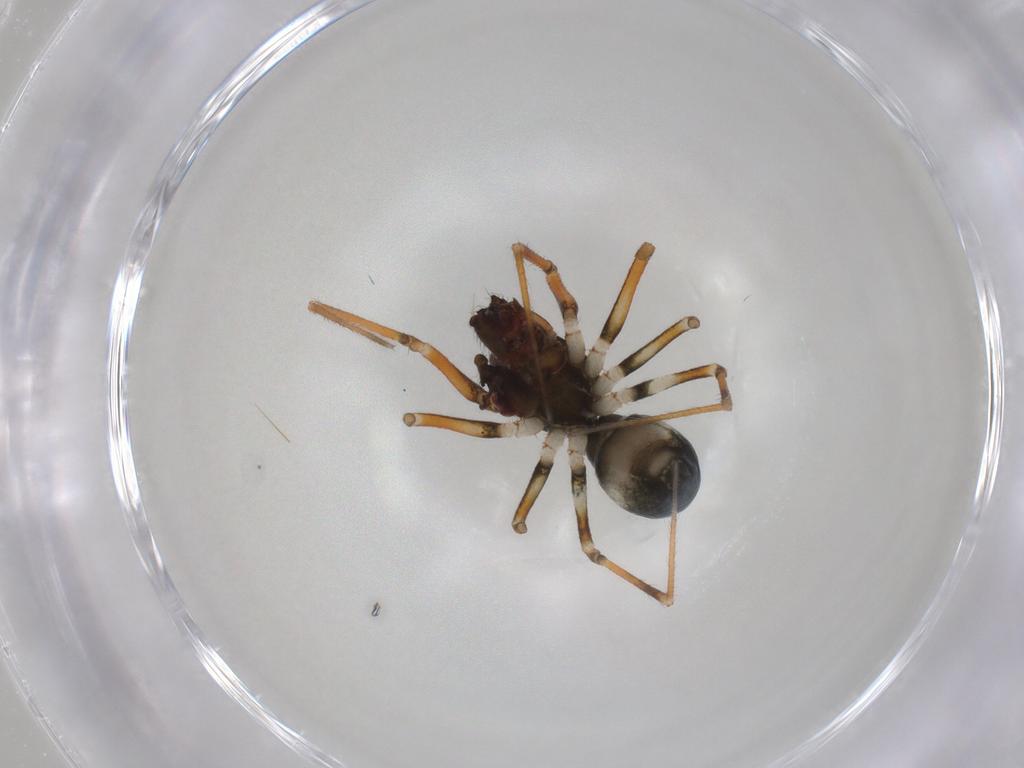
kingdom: Animalia
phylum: Arthropoda
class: Arachnida
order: Araneae
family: Linyphiidae
